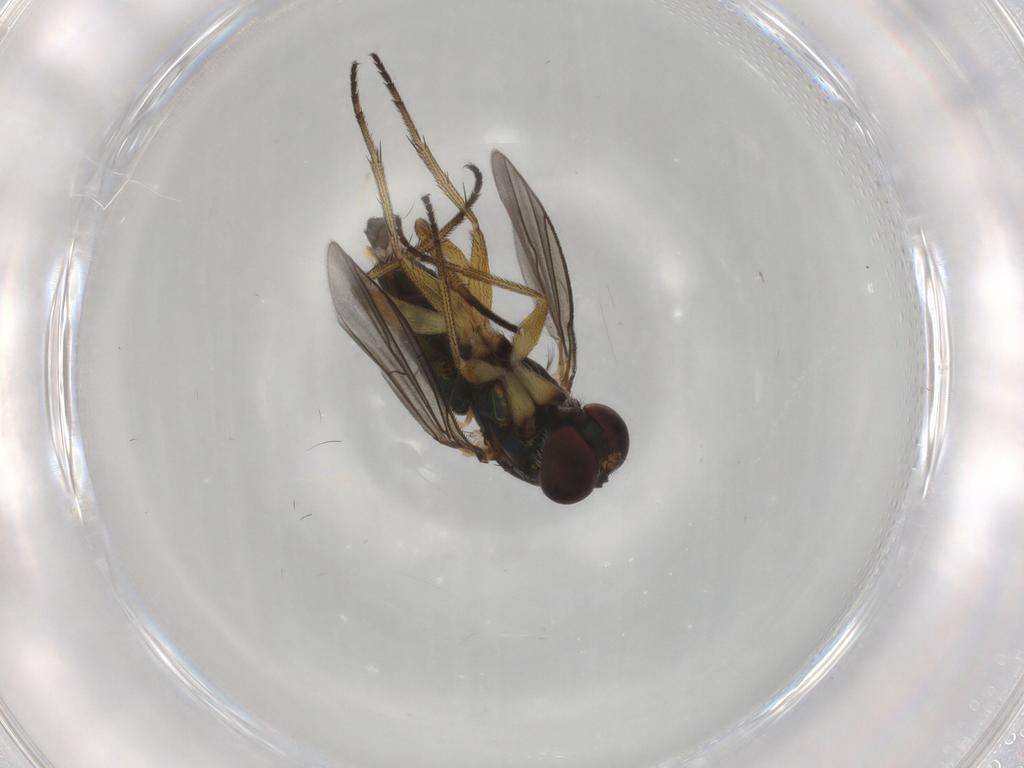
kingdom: Animalia
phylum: Arthropoda
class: Insecta
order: Diptera
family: Dolichopodidae
